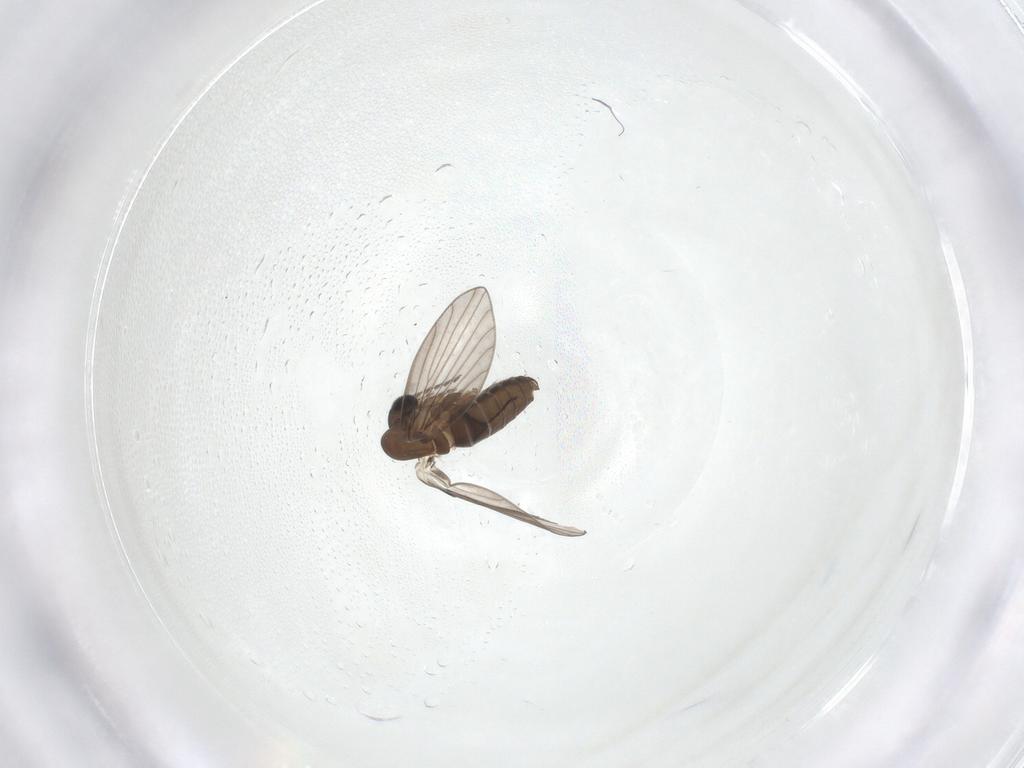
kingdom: Animalia
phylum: Arthropoda
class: Insecta
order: Diptera
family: Psychodidae
